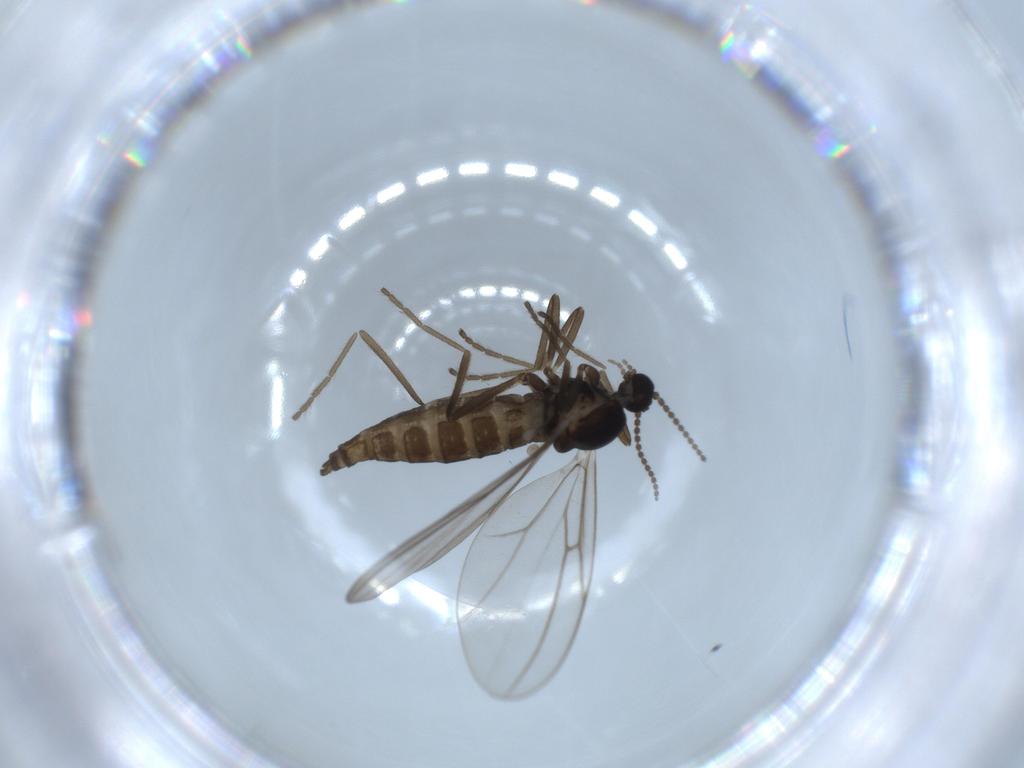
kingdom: Animalia
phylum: Arthropoda
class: Insecta
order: Diptera
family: Cecidomyiidae
